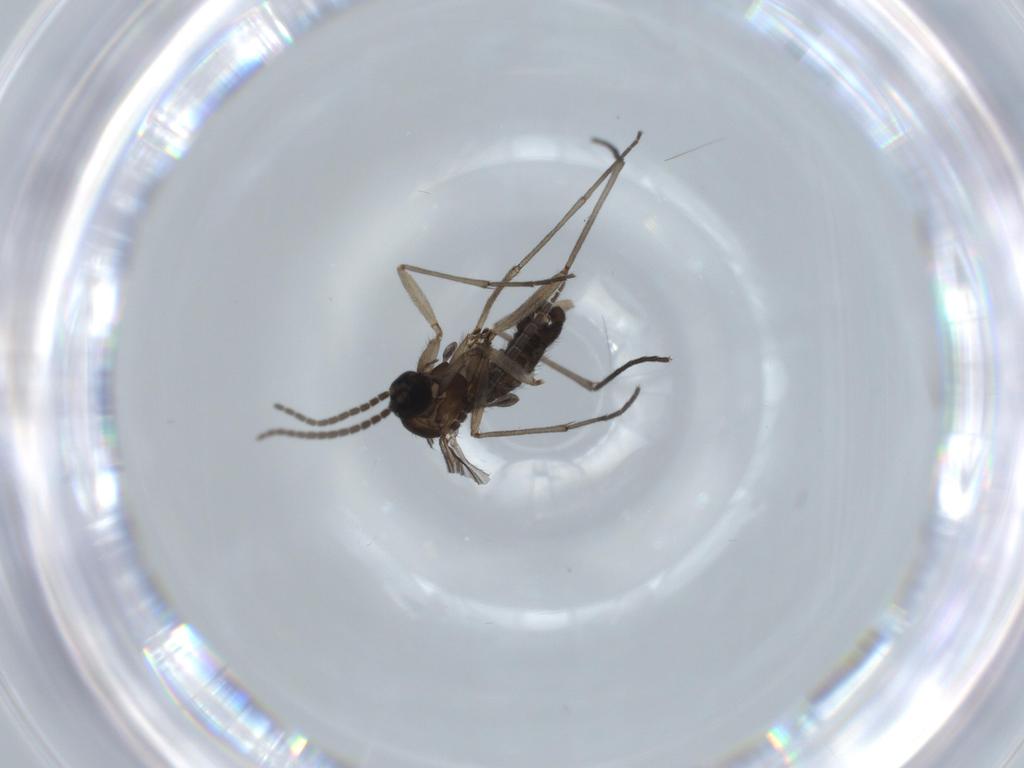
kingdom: Animalia
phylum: Arthropoda
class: Insecta
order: Diptera
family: Sciaridae
